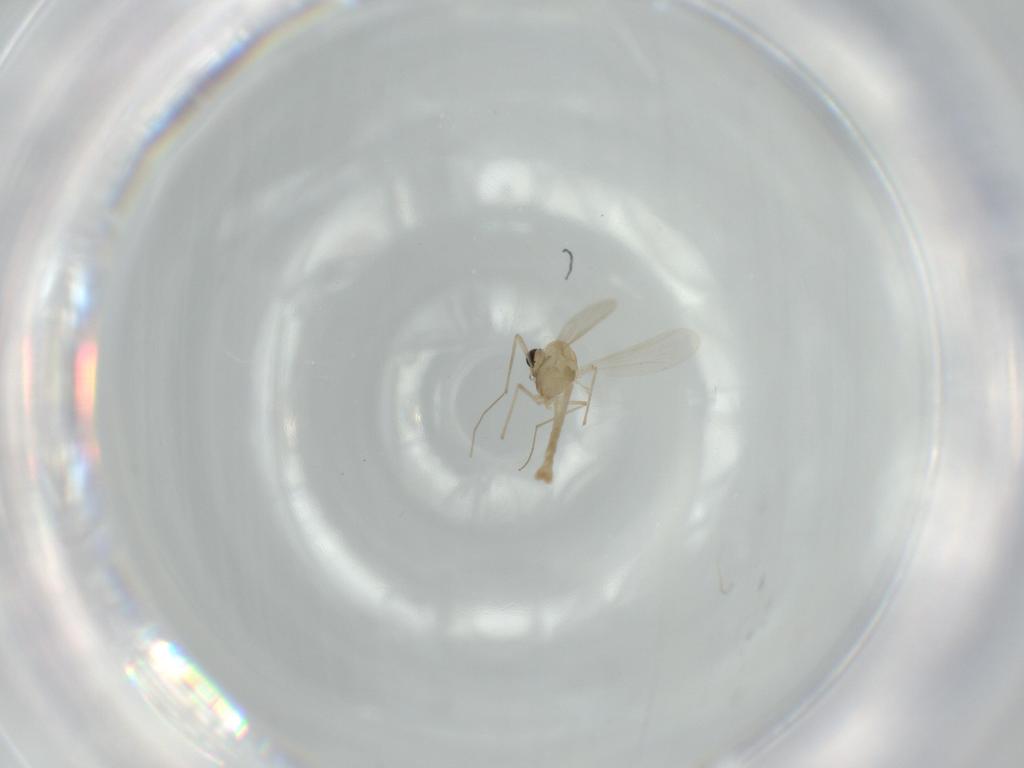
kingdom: Animalia
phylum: Arthropoda
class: Insecta
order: Diptera
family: Chironomidae
